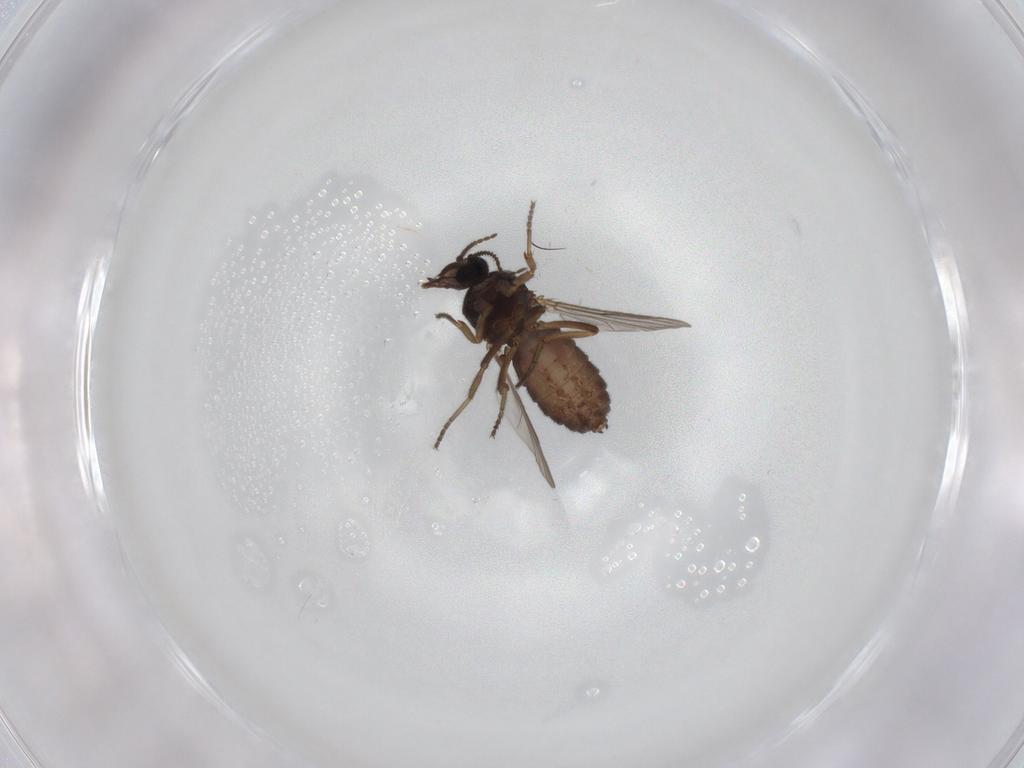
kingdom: Animalia
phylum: Arthropoda
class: Insecta
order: Diptera
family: Ceratopogonidae
